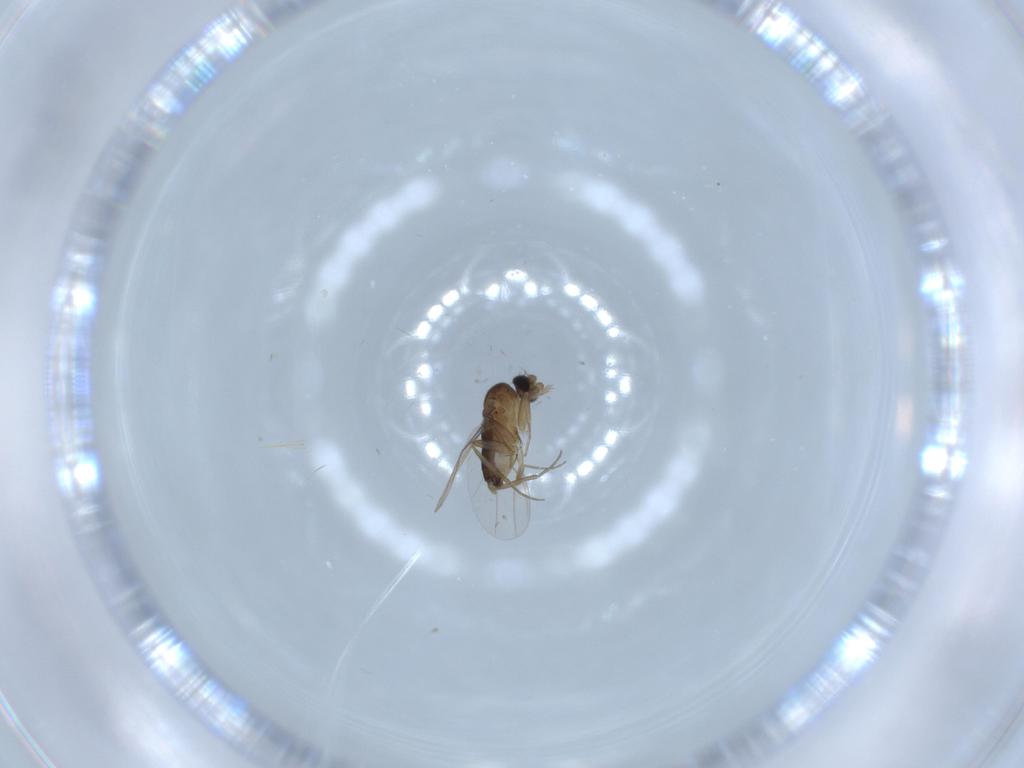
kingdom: Animalia
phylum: Arthropoda
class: Insecta
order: Diptera
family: Phoridae
